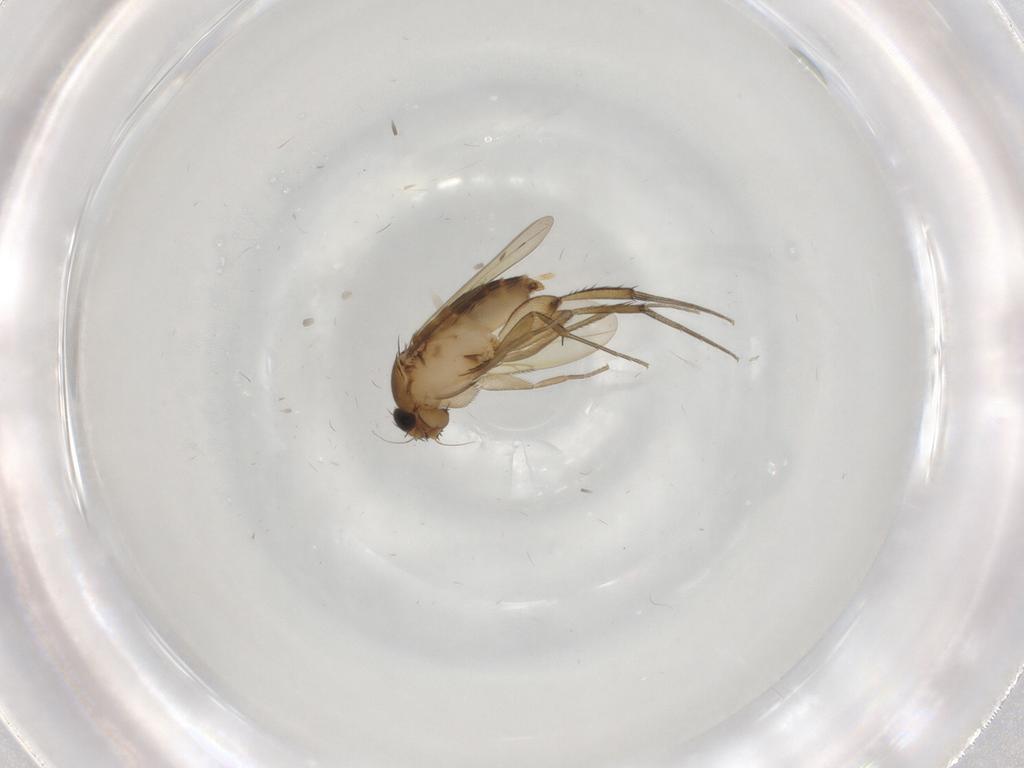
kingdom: Animalia
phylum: Arthropoda
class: Insecta
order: Diptera
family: Phoridae
